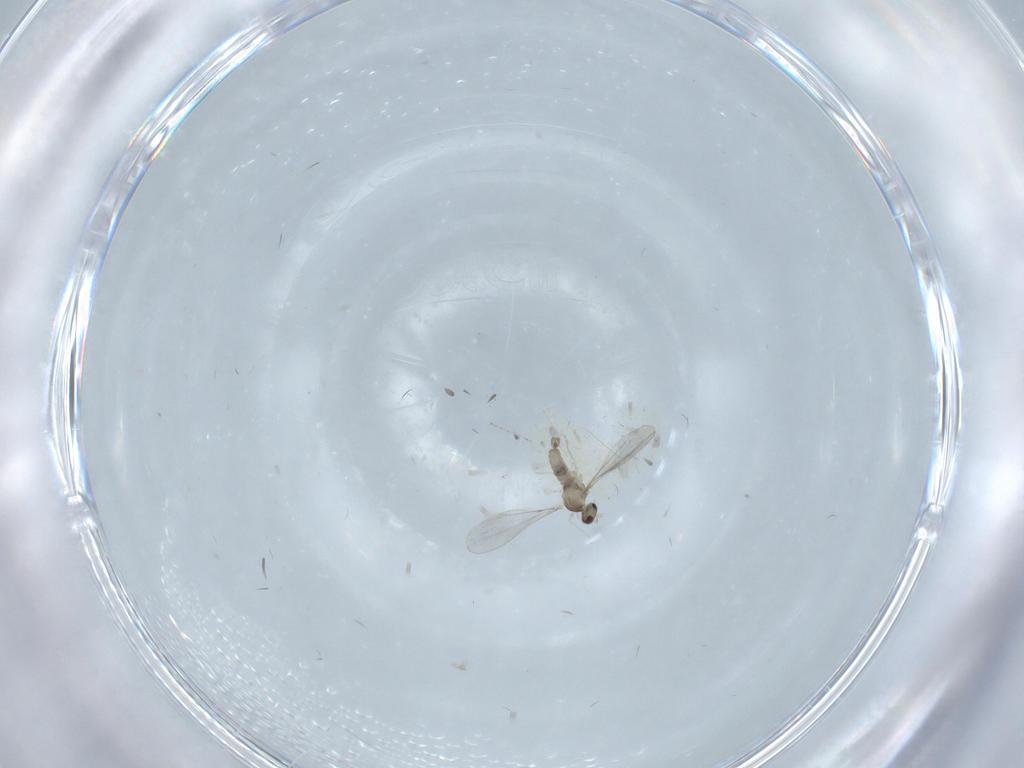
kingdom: Animalia
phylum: Arthropoda
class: Insecta
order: Diptera
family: Cecidomyiidae
